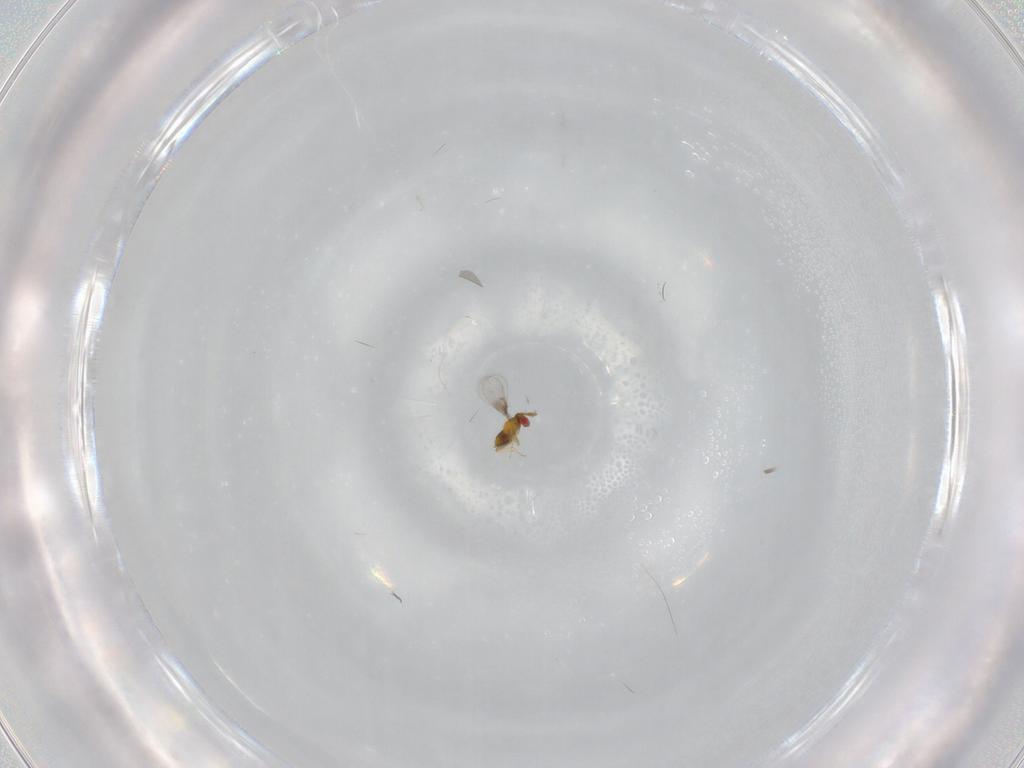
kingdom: Animalia
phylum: Arthropoda
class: Insecta
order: Hymenoptera
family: Trichogrammatidae
